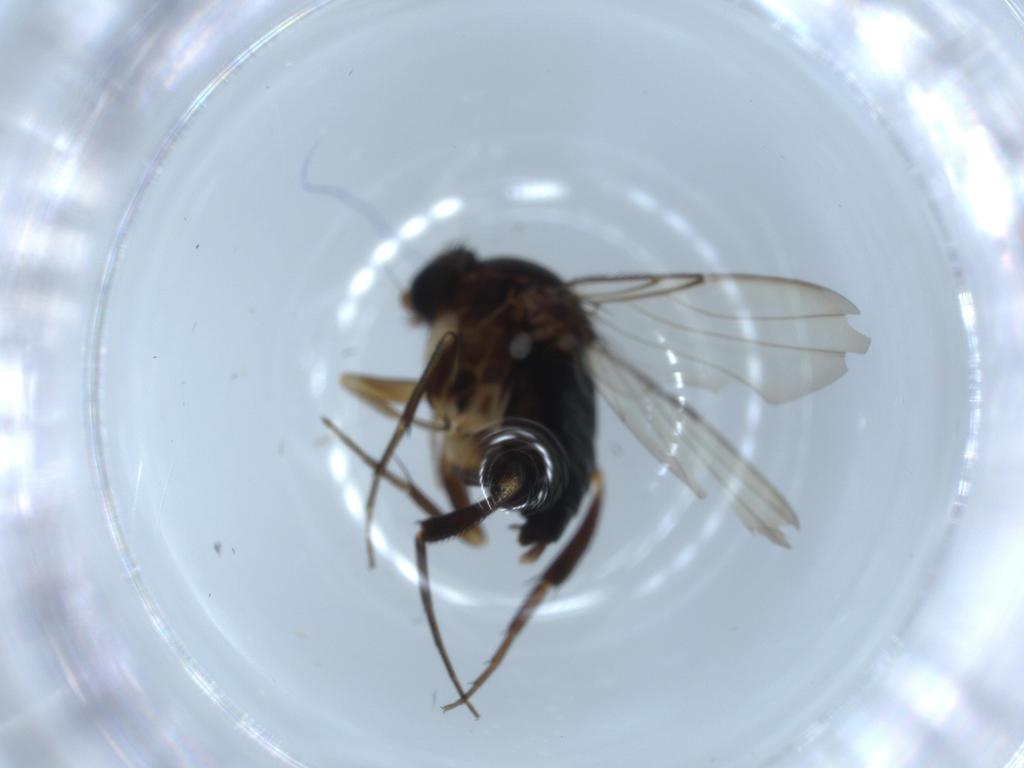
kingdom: Animalia
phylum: Arthropoda
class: Insecta
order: Diptera
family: Phoridae
